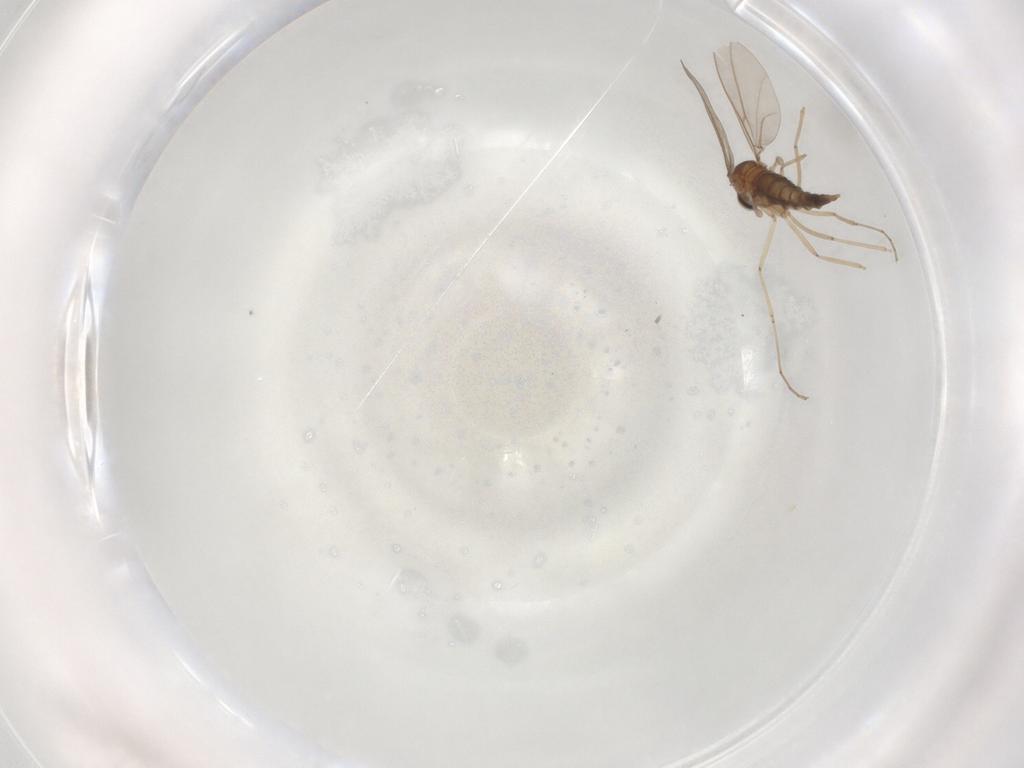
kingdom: Animalia
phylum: Arthropoda
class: Insecta
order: Diptera
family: Cecidomyiidae
